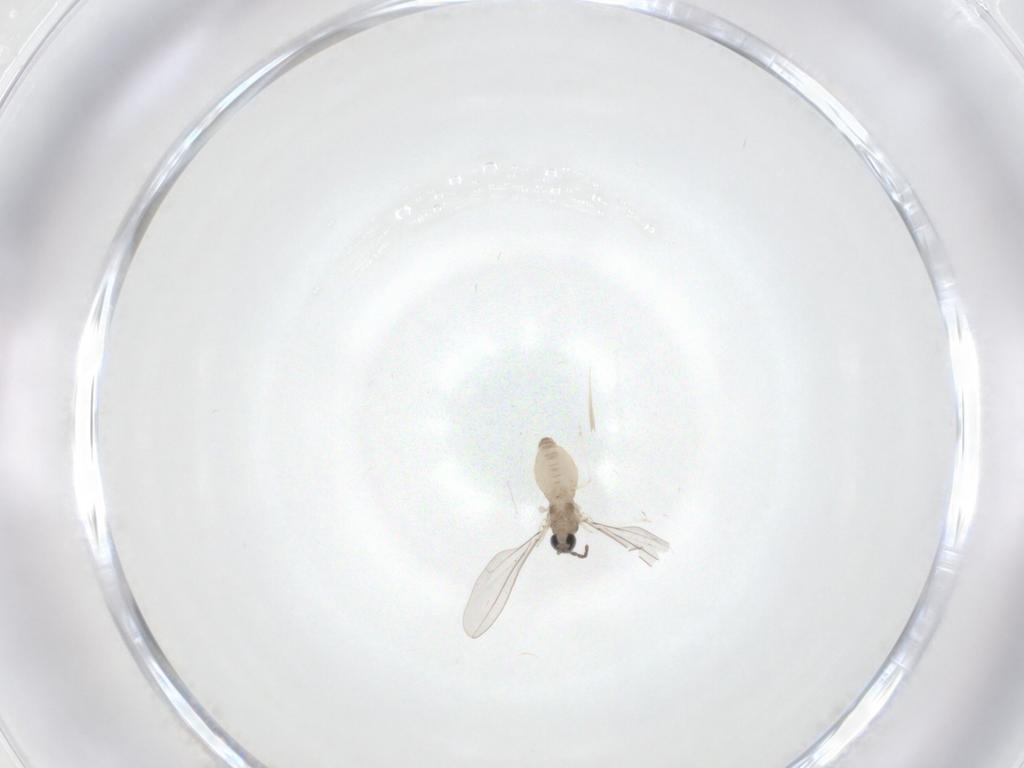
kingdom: Animalia
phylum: Arthropoda
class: Insecta
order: Diptera
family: Cecidomyiidae
